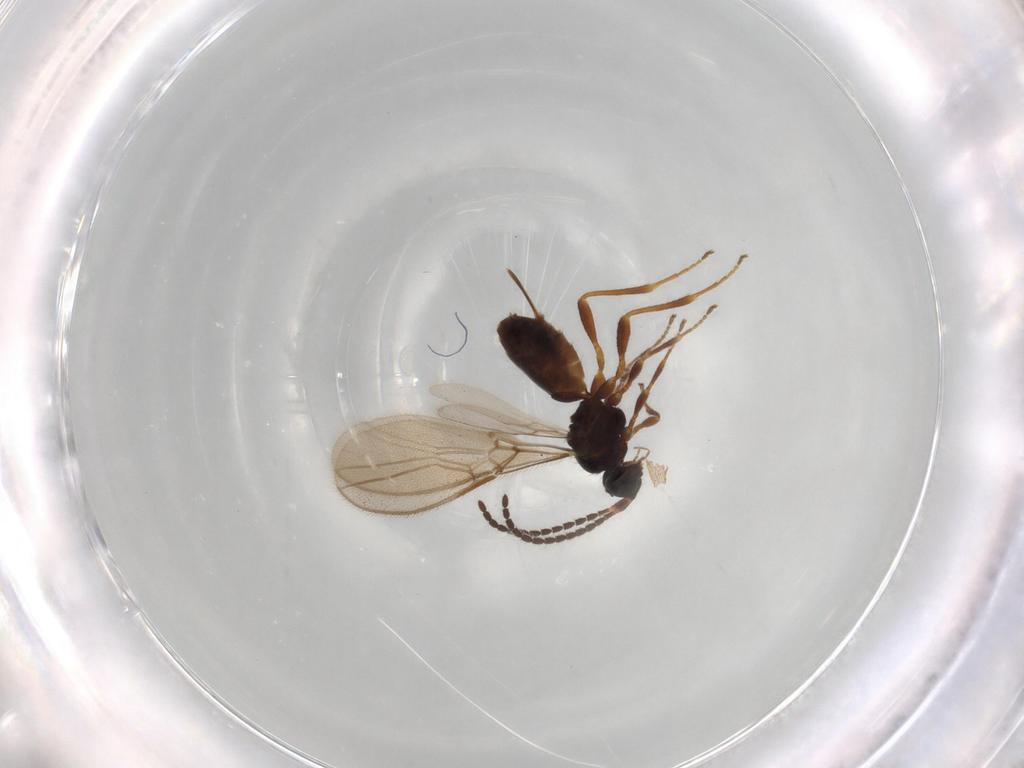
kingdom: Animalia
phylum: Arthropoda
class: Insecta
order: Hymenoptera
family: Braconidae
